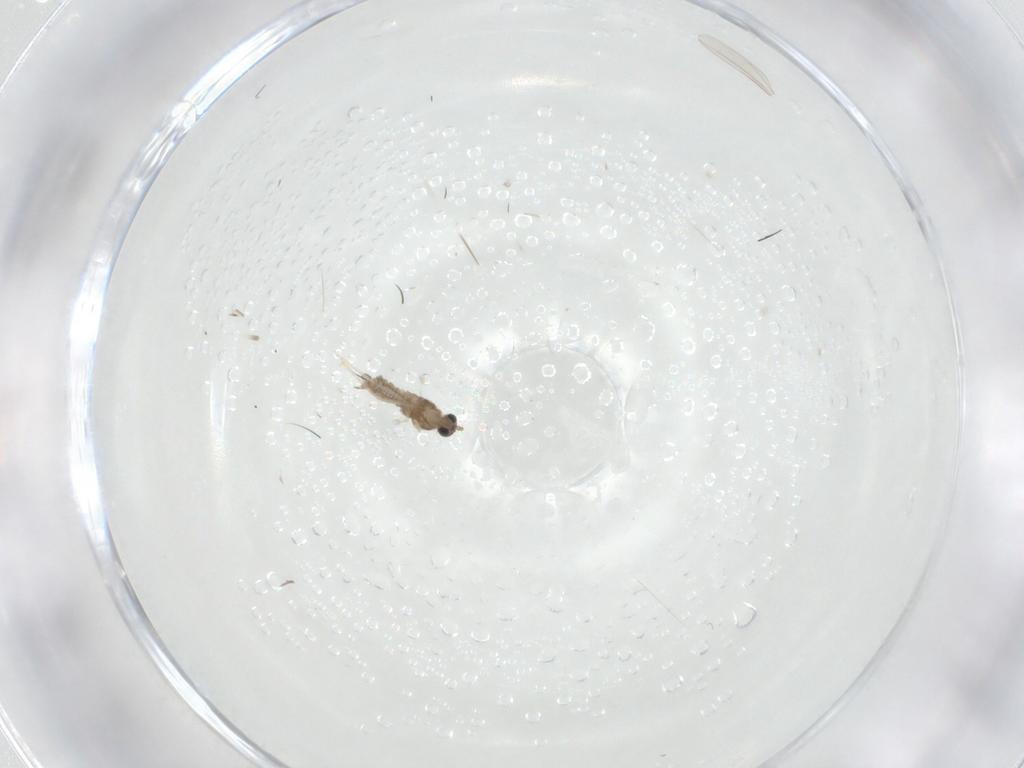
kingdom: Animalia
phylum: Arthropoda
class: Insecta
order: Diptera
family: Cecidomyiidae
